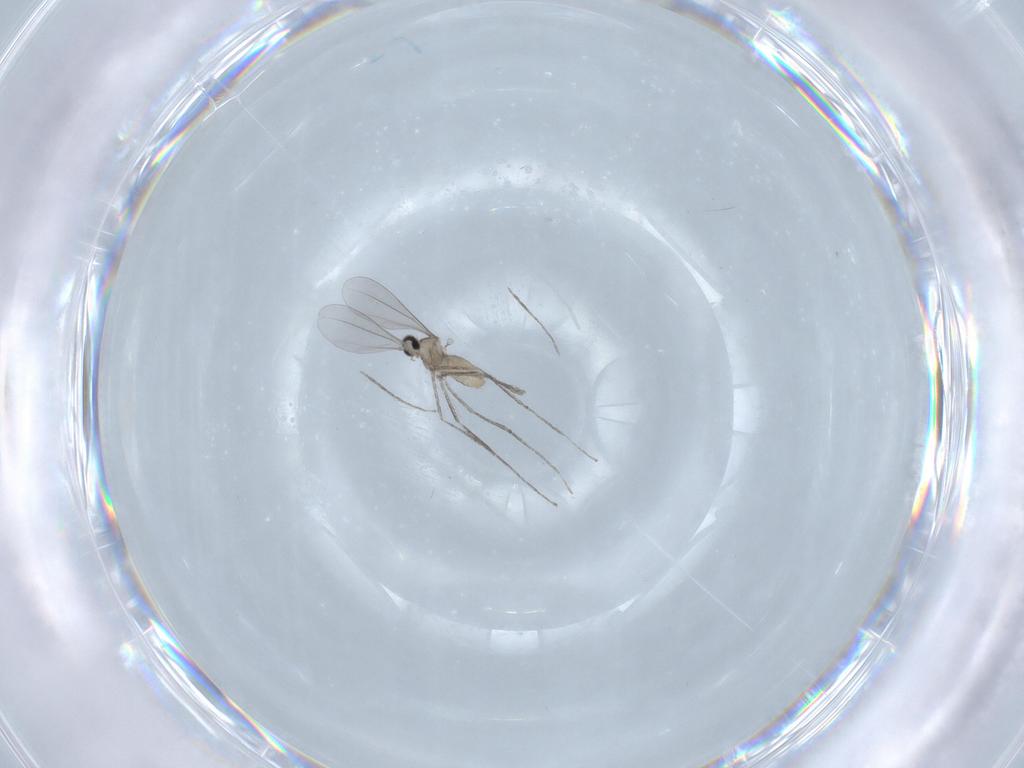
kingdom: Animalia
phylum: Arthropoda
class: Insecta
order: Diptera
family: Cecidomyiidae
